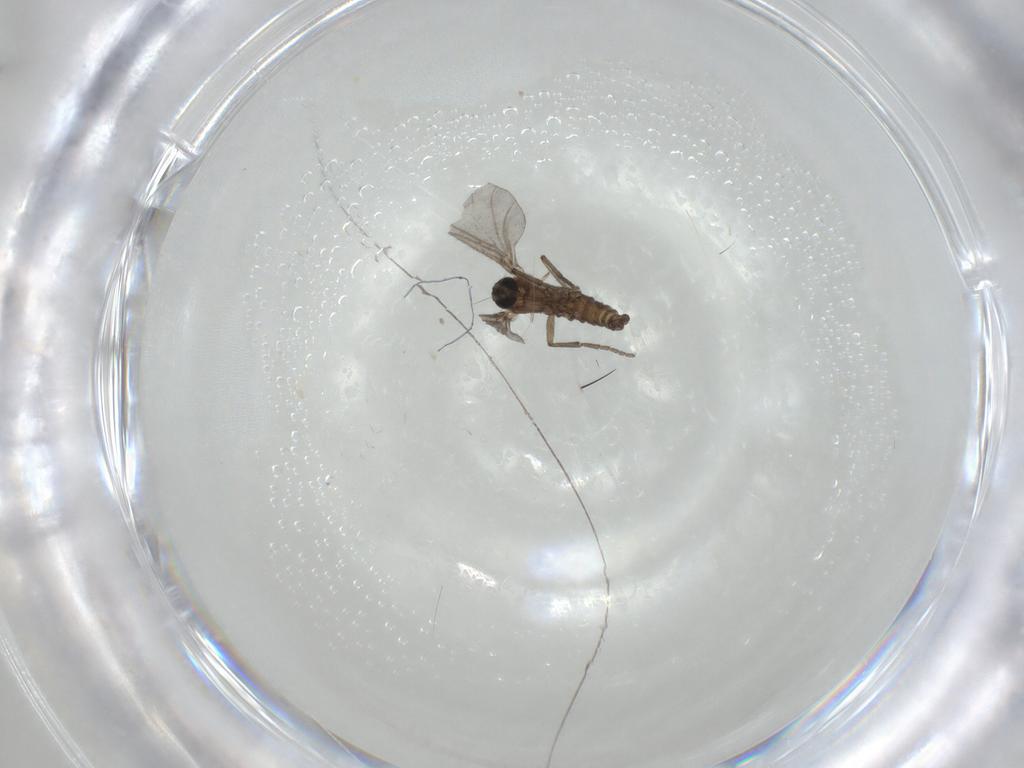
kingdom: Animalia
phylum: Arthropoda
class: Insecta
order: Diptera
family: Sciaridae
